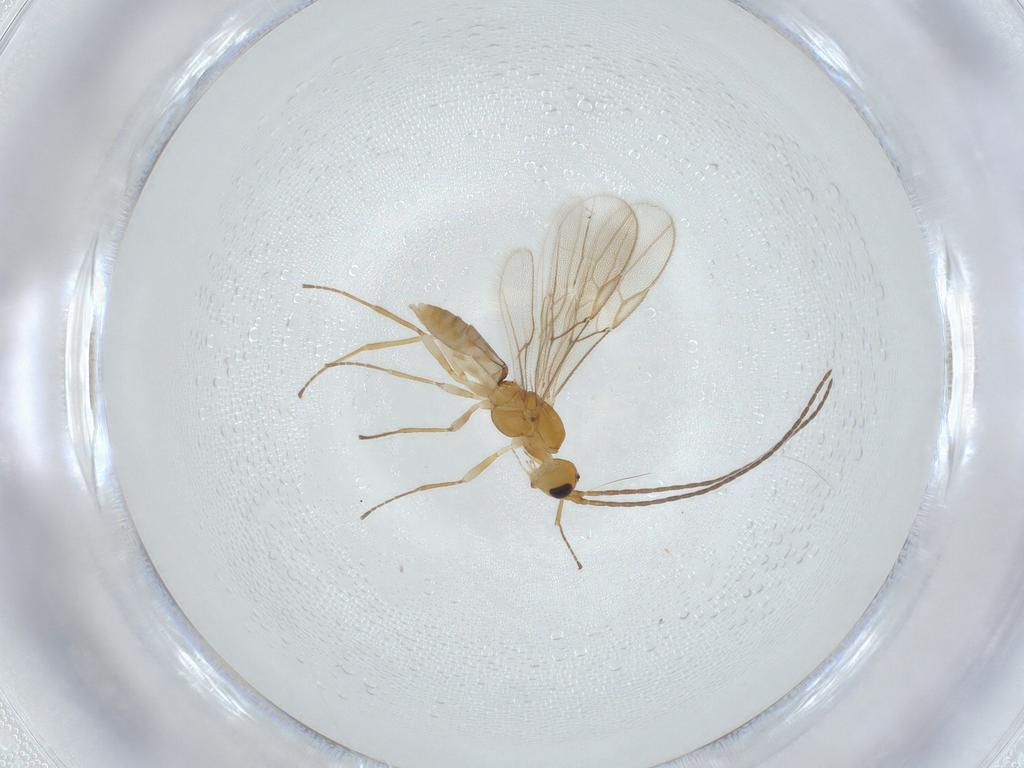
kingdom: Animalia
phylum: Arthropoda
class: Insecta
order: Hymenoptera
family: Braconidae
